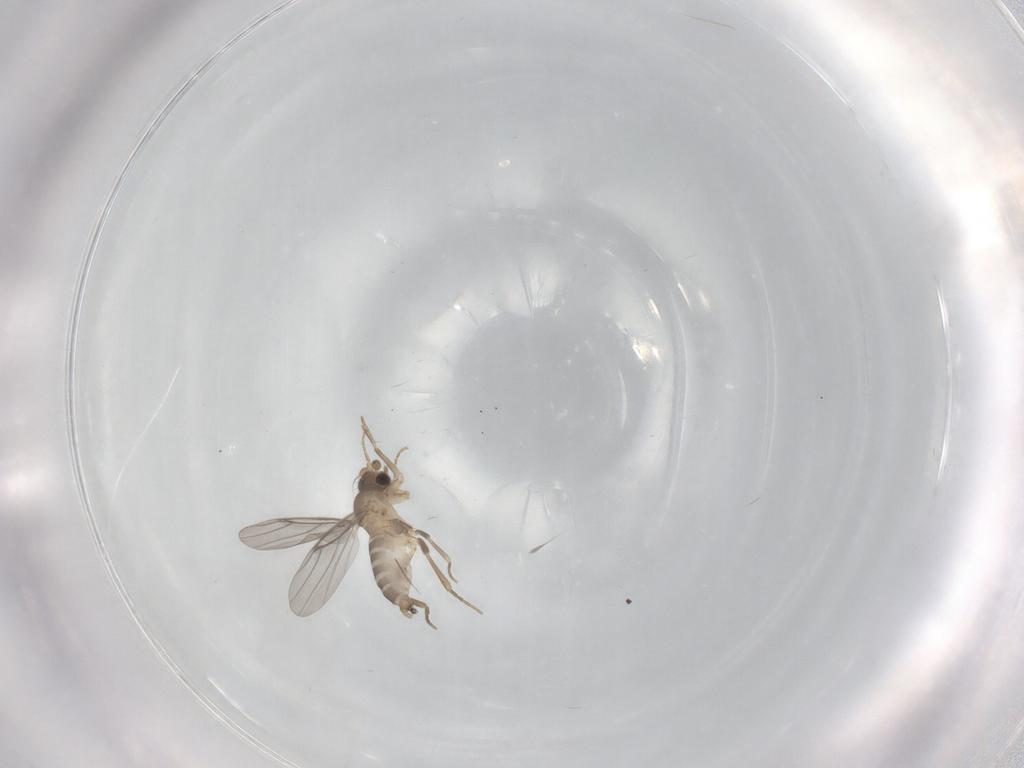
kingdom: Animalia
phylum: Arthropoda
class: Insecta
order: Diptera
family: Cecidomyiidae
